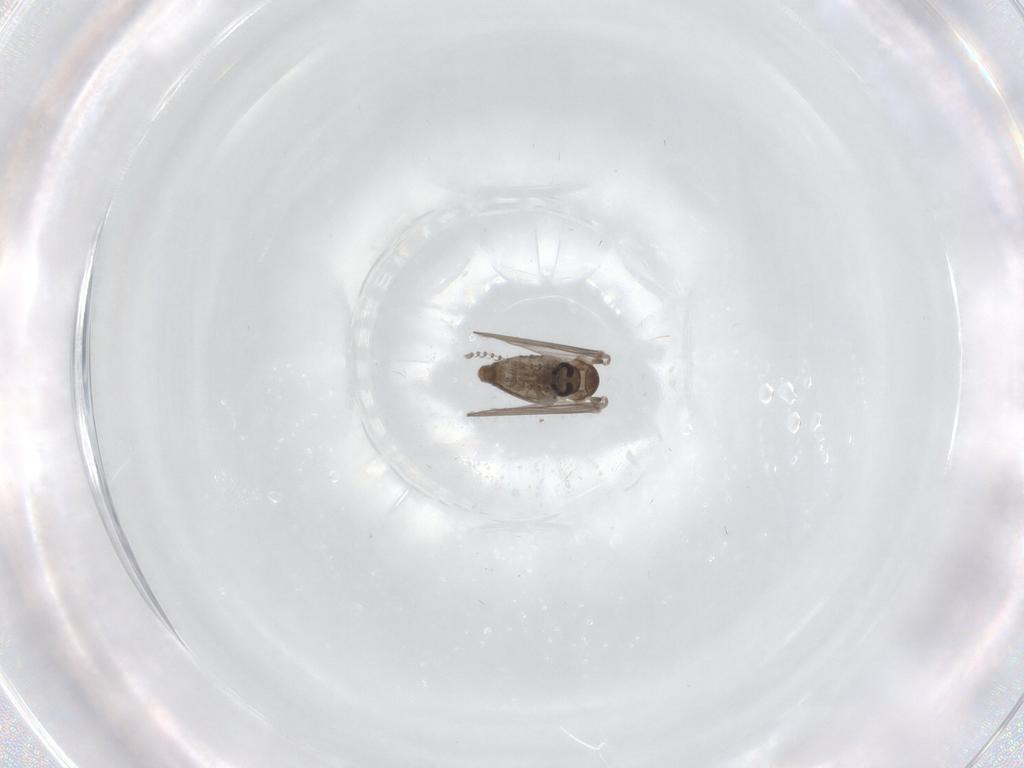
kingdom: Animalia
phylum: Arthropoda
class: Insecta
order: Diptera
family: Psychodidae
